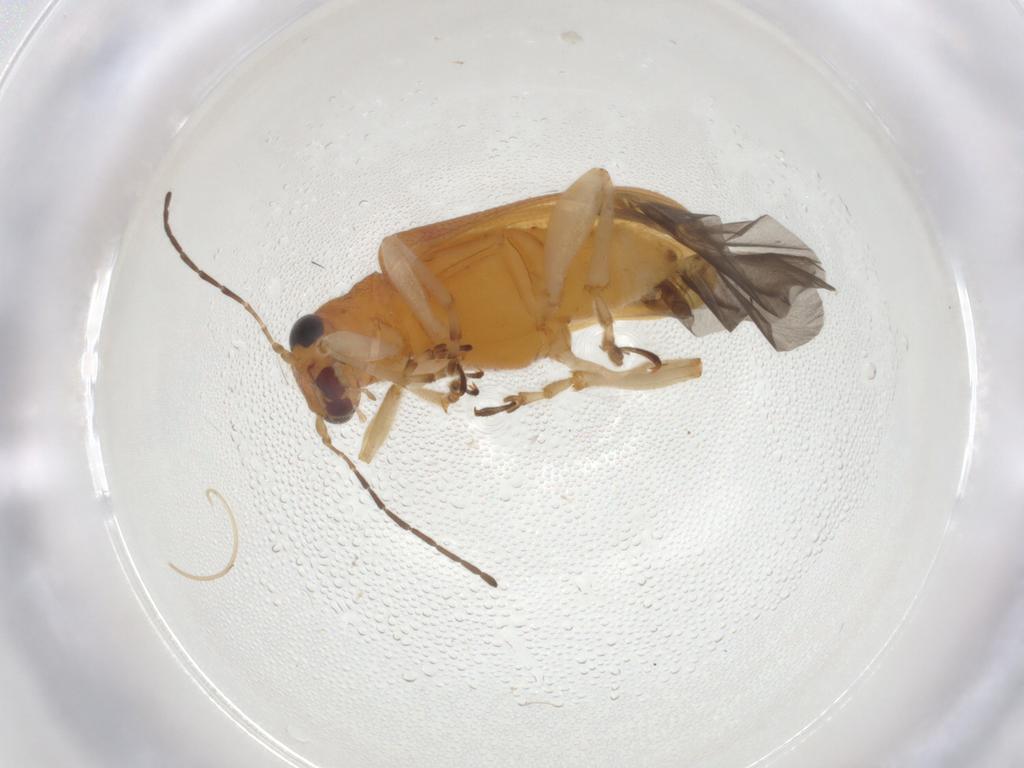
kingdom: Animalia
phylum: Arthropoda
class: Insecta
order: Coleoptera
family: Chrysomelidae
